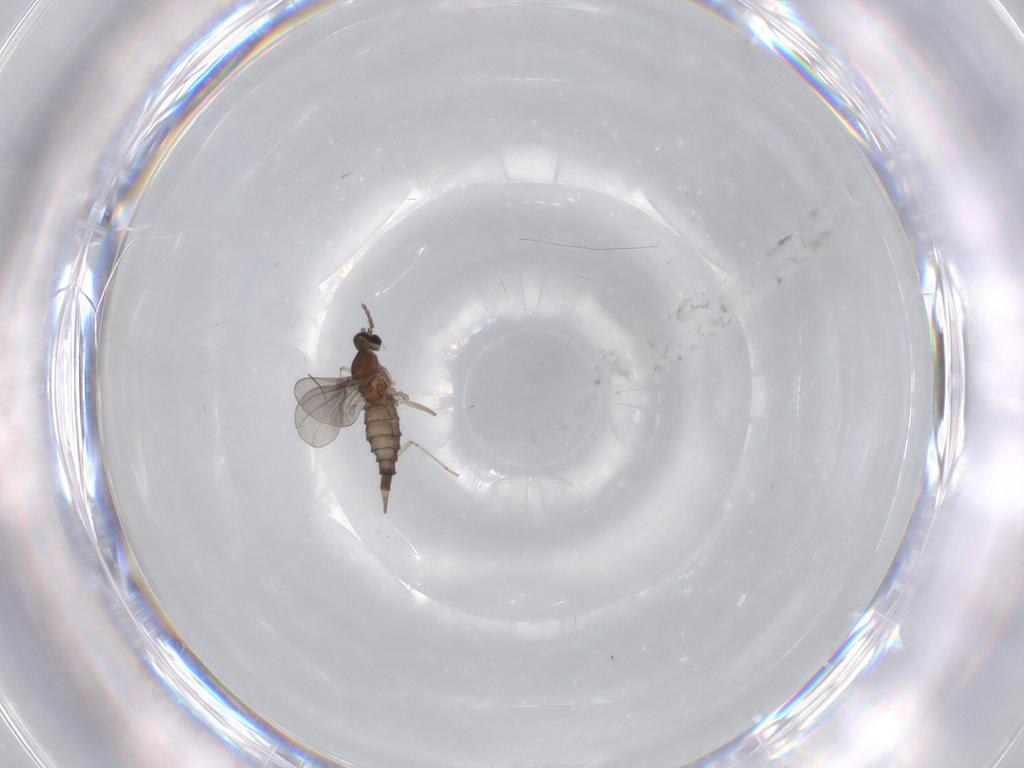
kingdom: Animalia
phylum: Arthropoda
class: Insecta
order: Diptera
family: Cecidomyiidae
